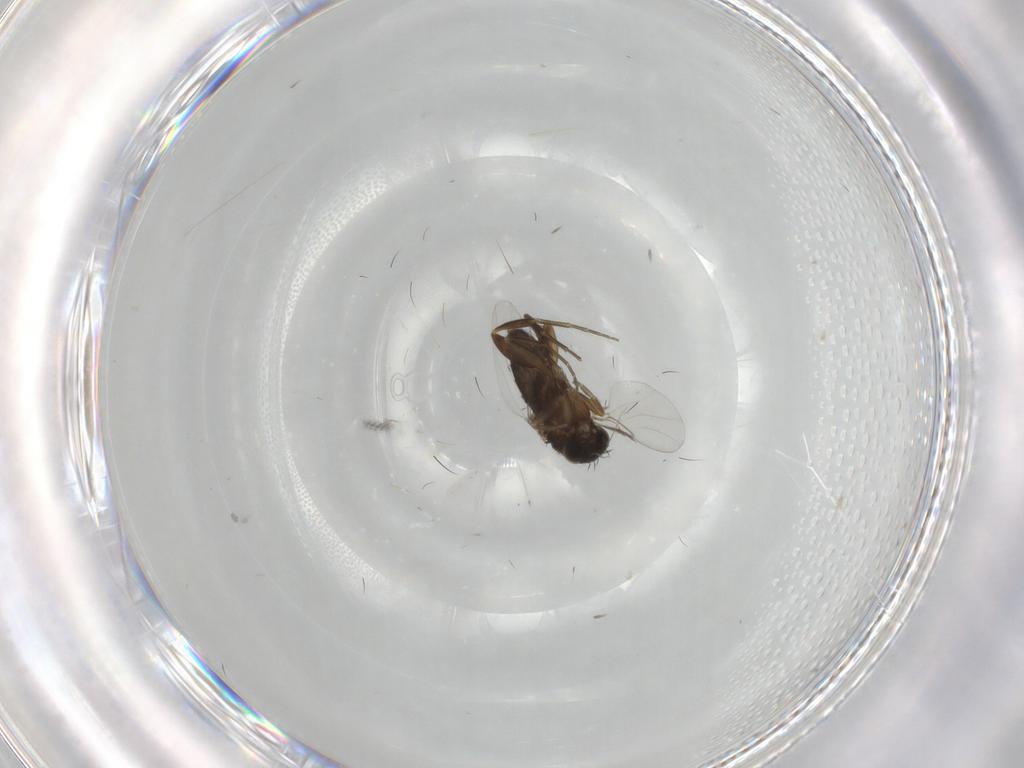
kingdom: Animalia
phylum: Arthropoda
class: Insecta
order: Diptera
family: Phoridae
